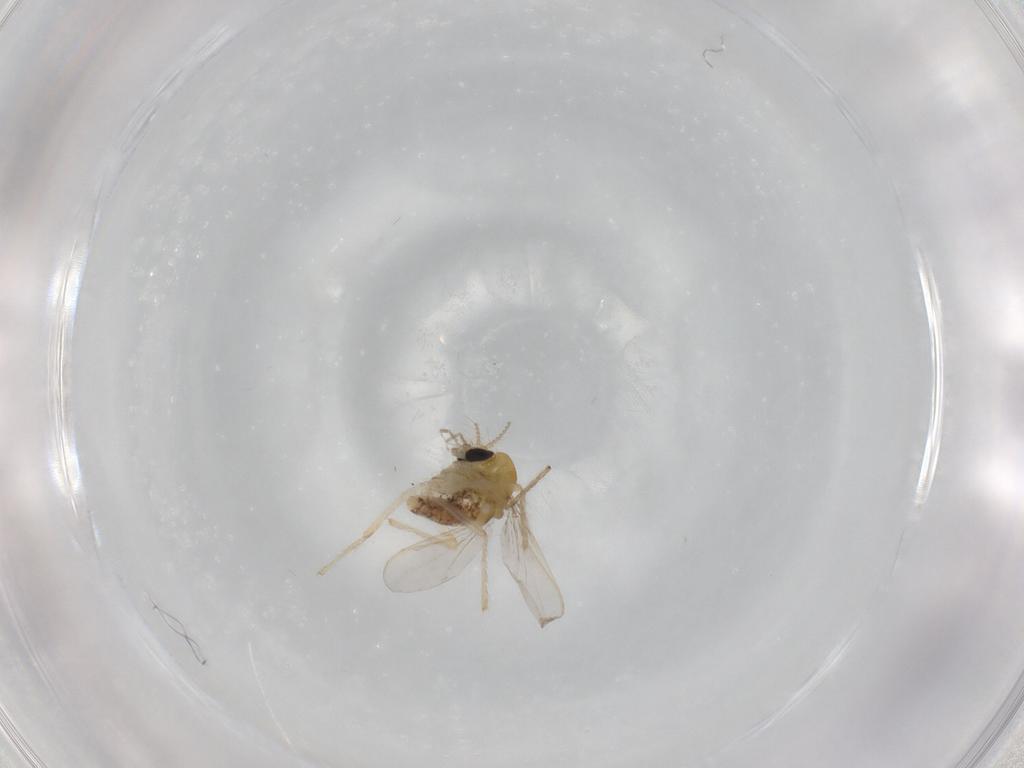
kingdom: Animalia
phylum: Arthropoda
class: Insecta
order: Diptera
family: Chironomidae
